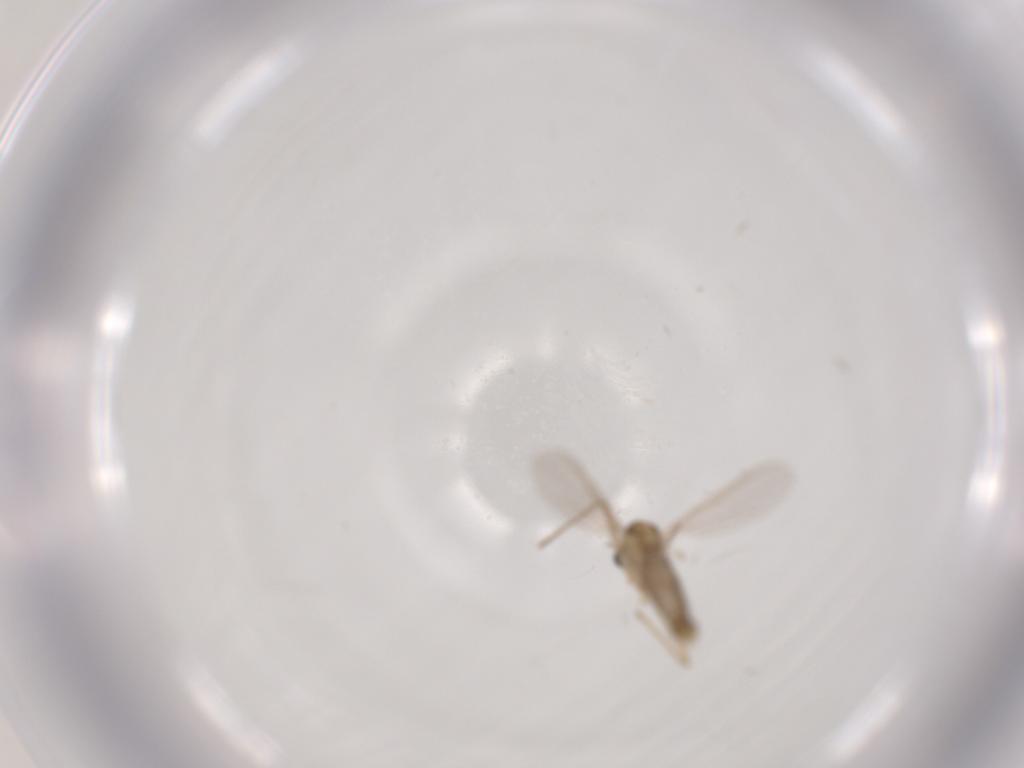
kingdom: Animalia
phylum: Arthropoda
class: Insecta
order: Diptera
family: Chironomidae
